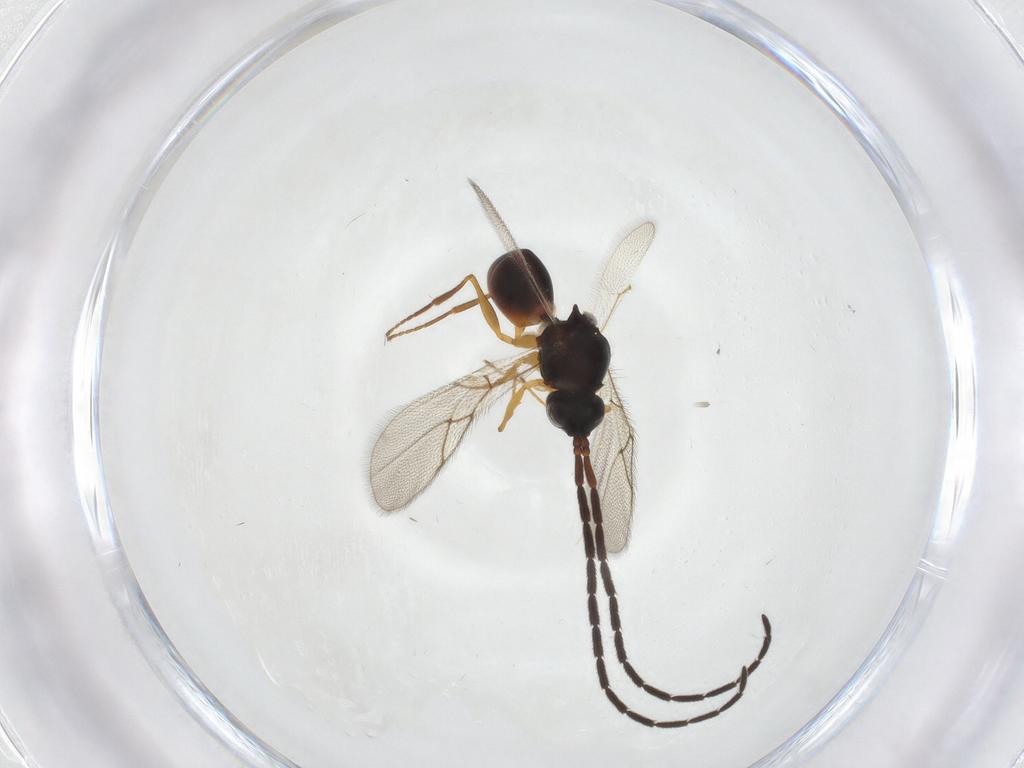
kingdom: Animalia
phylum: Arthropoda
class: Insecta
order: Hymenoptera
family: Figitidae
